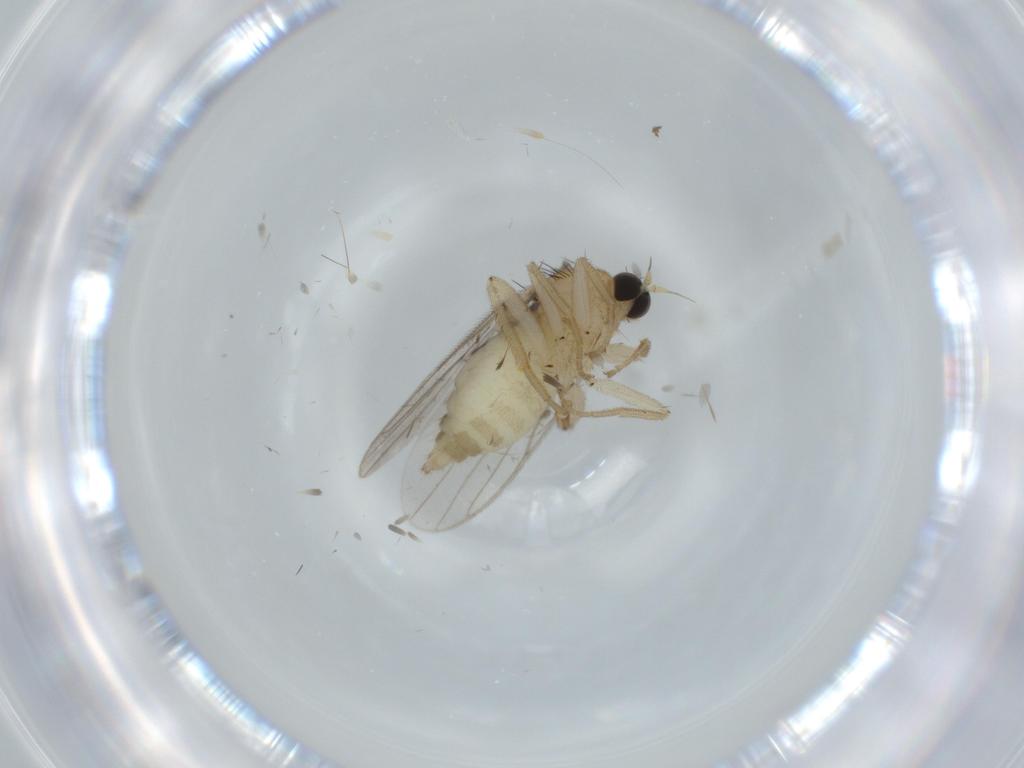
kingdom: Animalia
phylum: Arthropoda
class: Insecta
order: Diptera
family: Hybotidae
